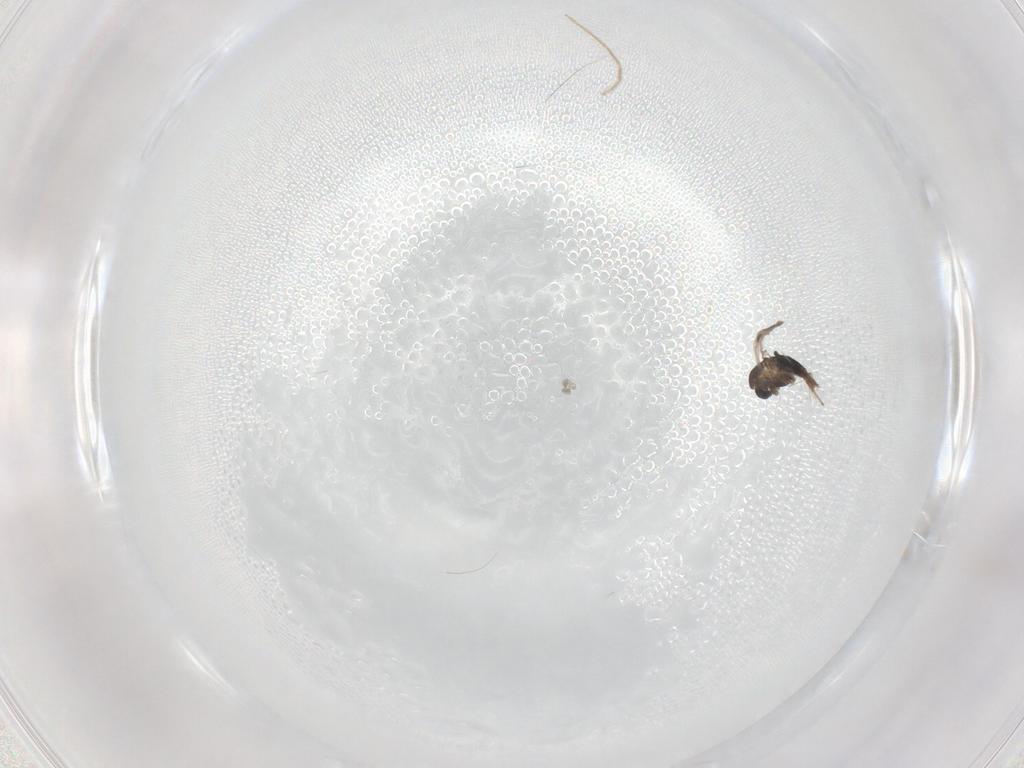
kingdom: Animalia
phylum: Arthropoda
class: Insecta
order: Diptera
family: Chironomidae
